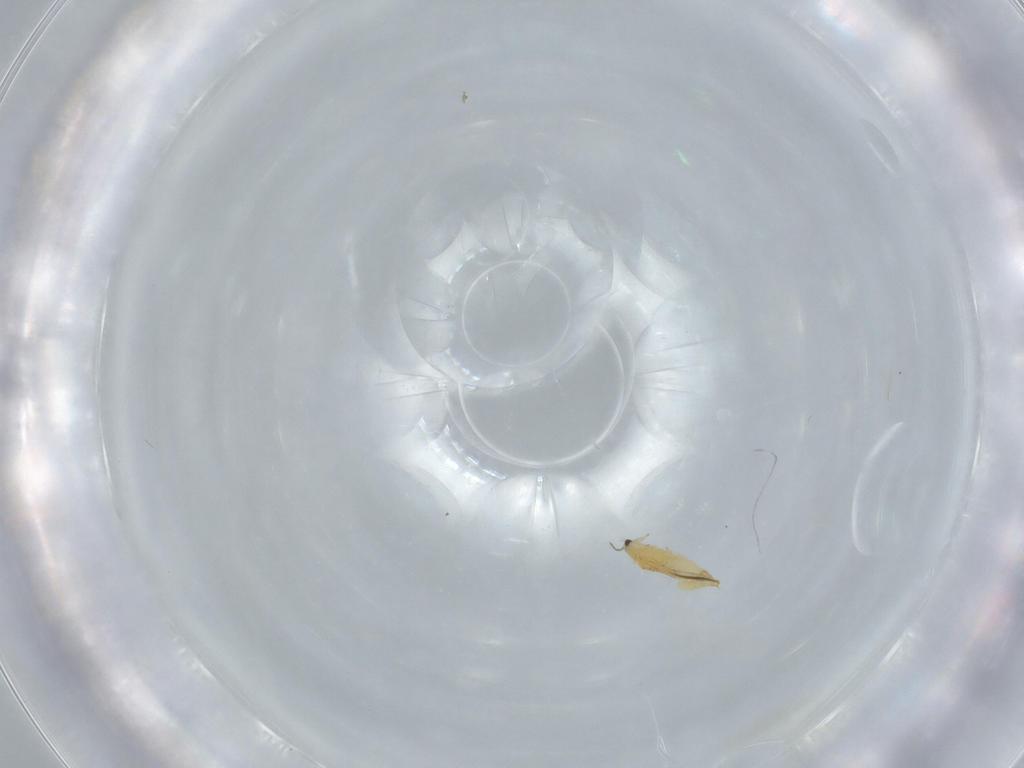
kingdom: Animalia
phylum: Arthropoda
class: Insecta
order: Thysanoptera
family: Thripidae
